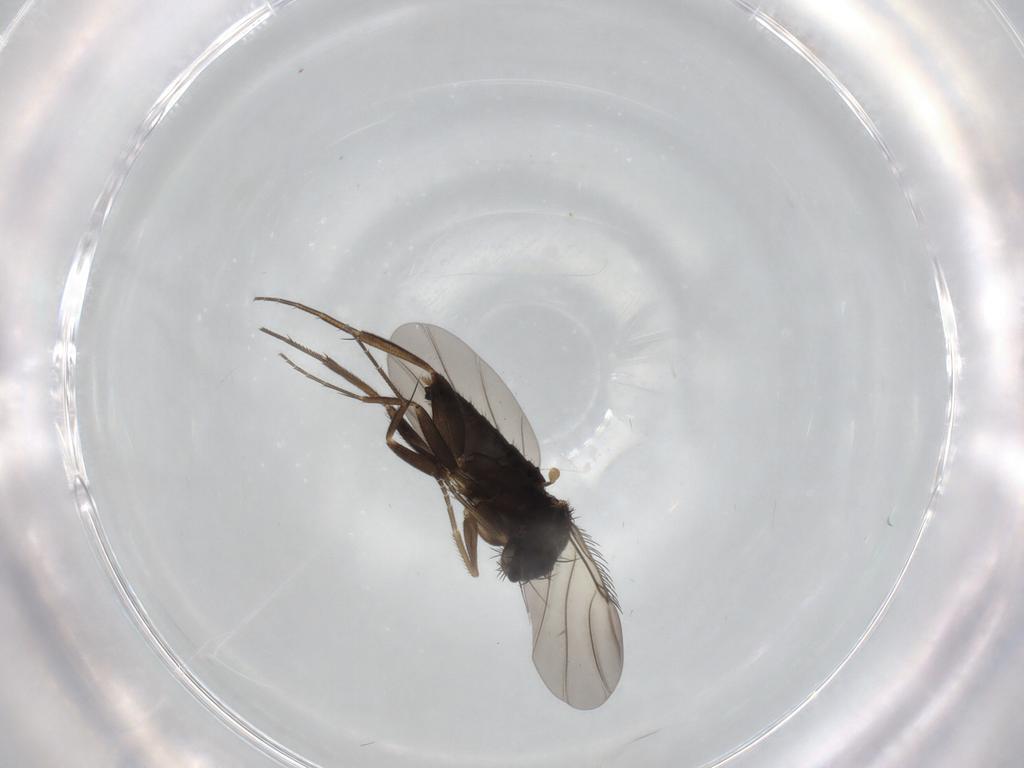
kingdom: Animalia
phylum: Arthropoda
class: Insecta
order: Diptera
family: Phoridae
